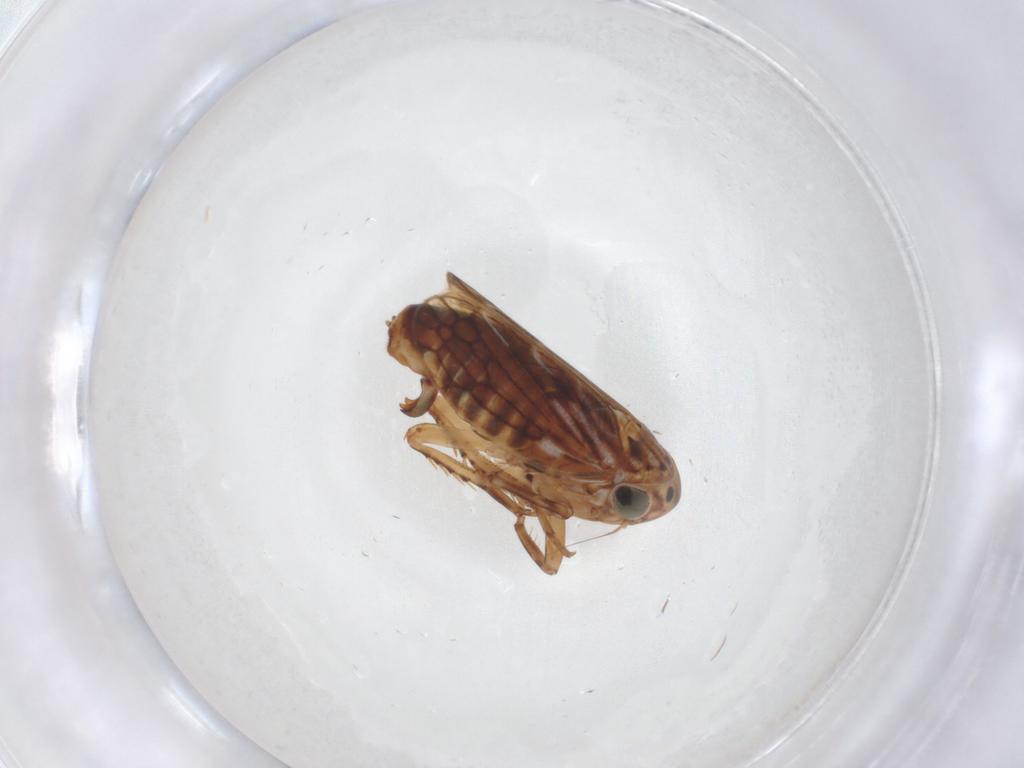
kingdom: Animalia
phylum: Arthropoda
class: Insecta
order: Hemiptera
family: Cicadellidae
